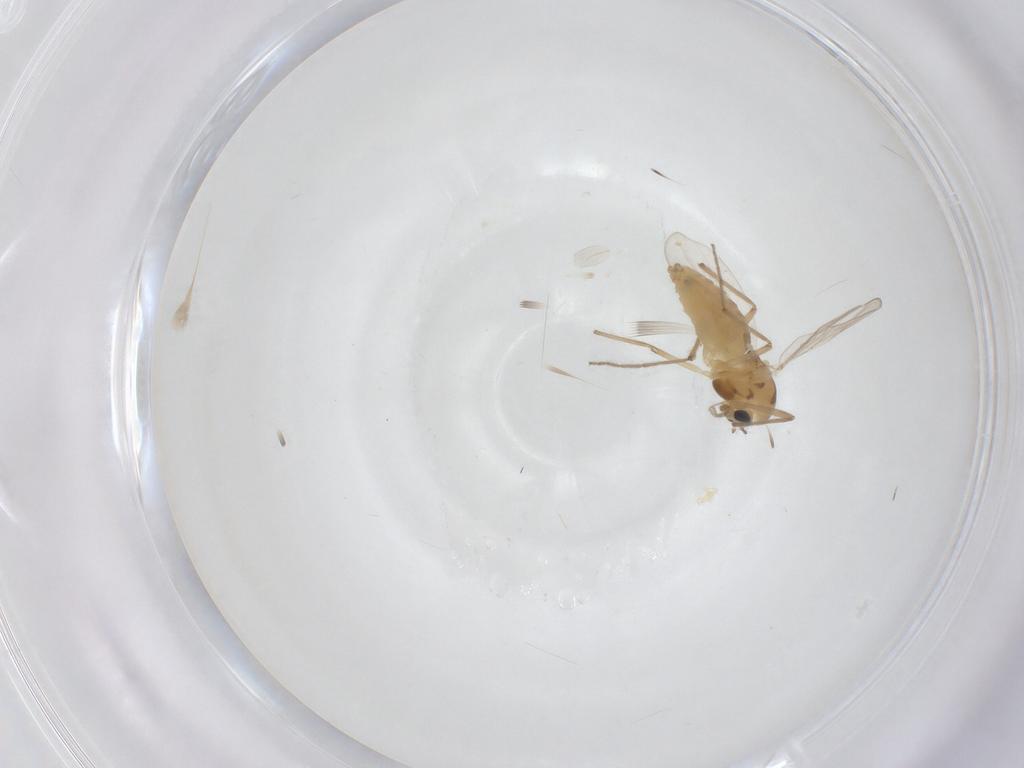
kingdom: Animalia
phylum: Arthropoda
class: Insecta
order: Diptera
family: Chironomidae
